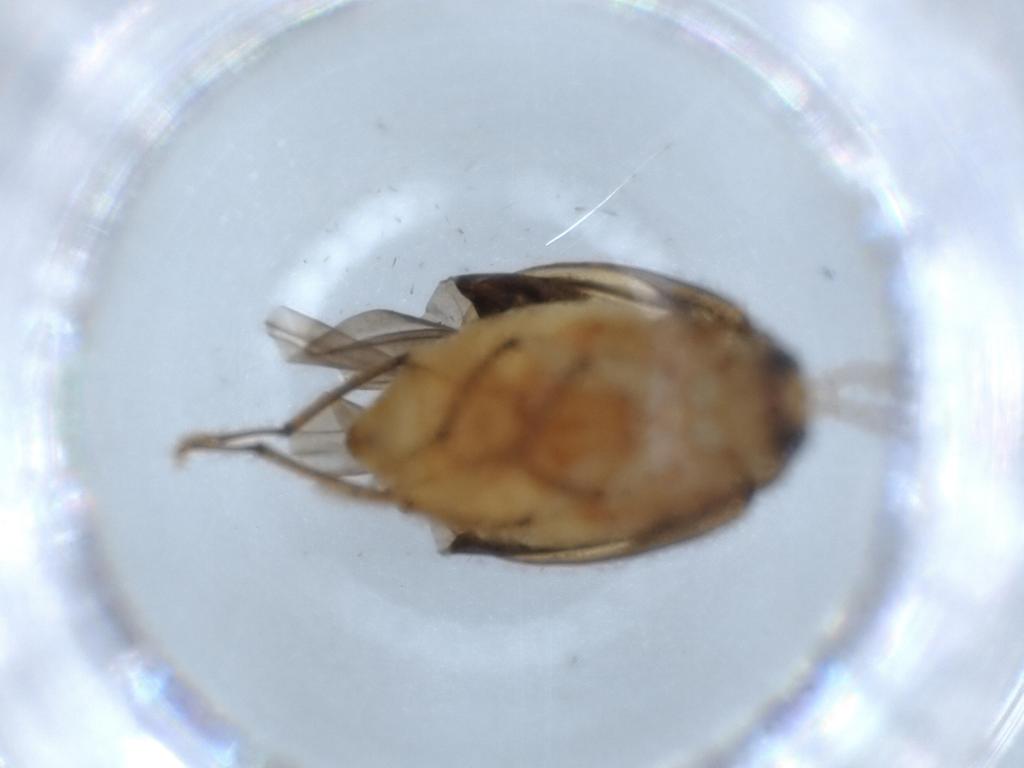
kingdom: Animalia
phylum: Arthropoda
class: Insecta
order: Coleoptera
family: Chrysomelidae
